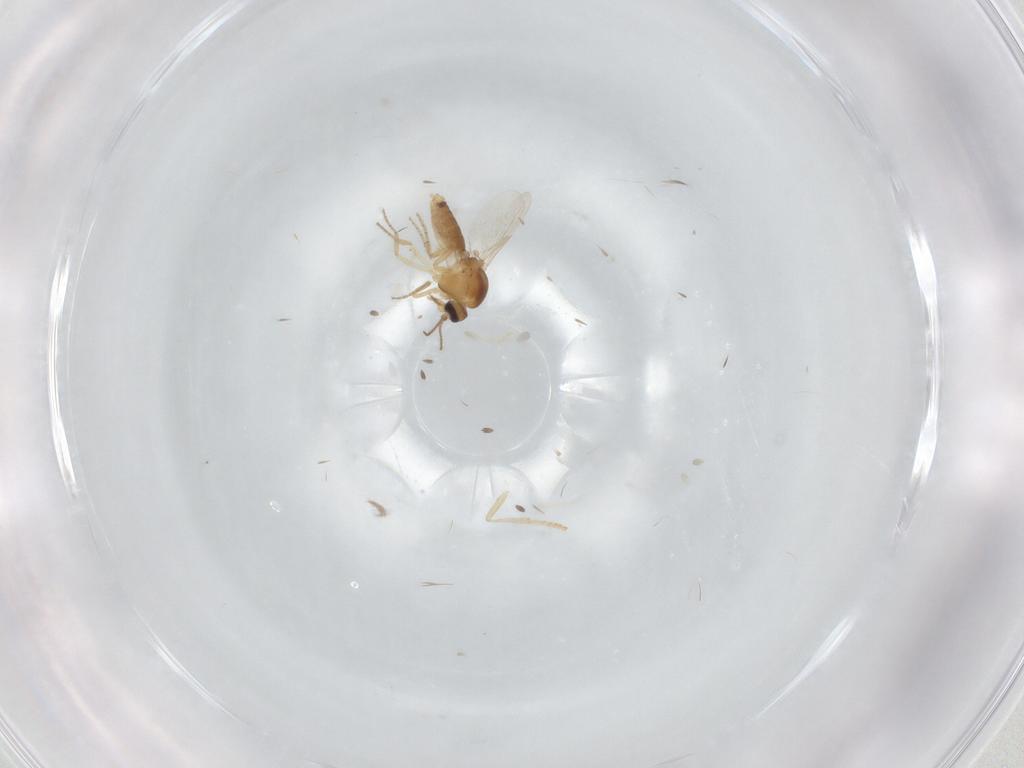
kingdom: Animalia
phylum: Arthropoda
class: Insecta
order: Diptera
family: Psychodidae
